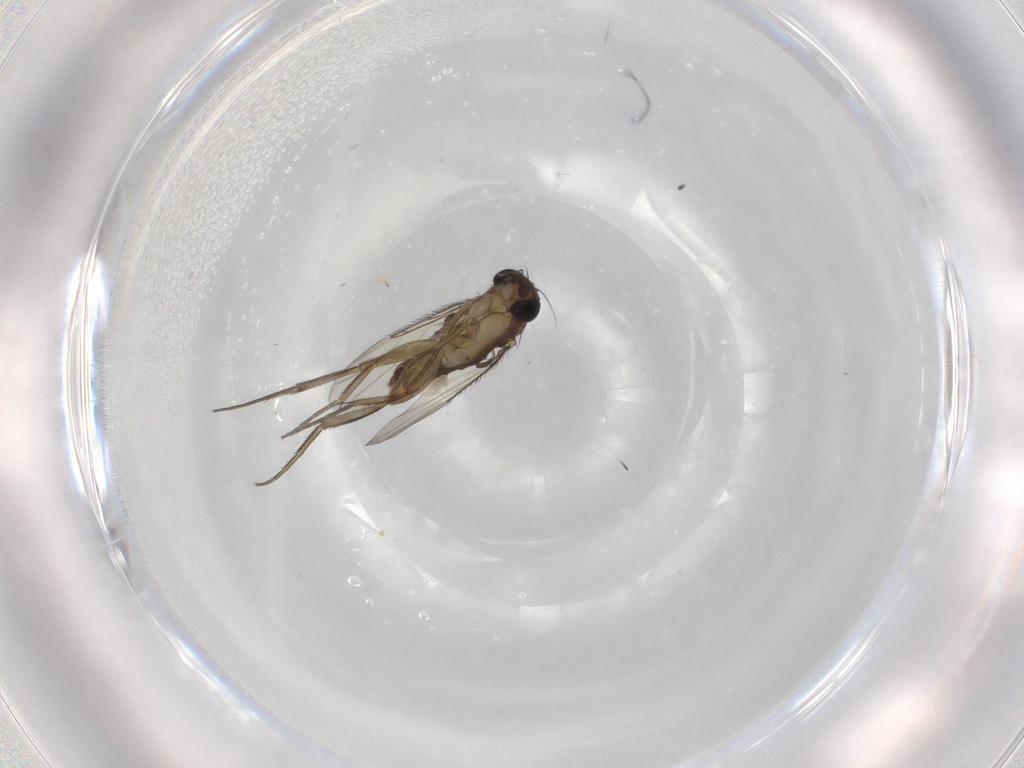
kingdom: Animalia
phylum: Arthropoda
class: Insecta
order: Diptera
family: Phoridae
